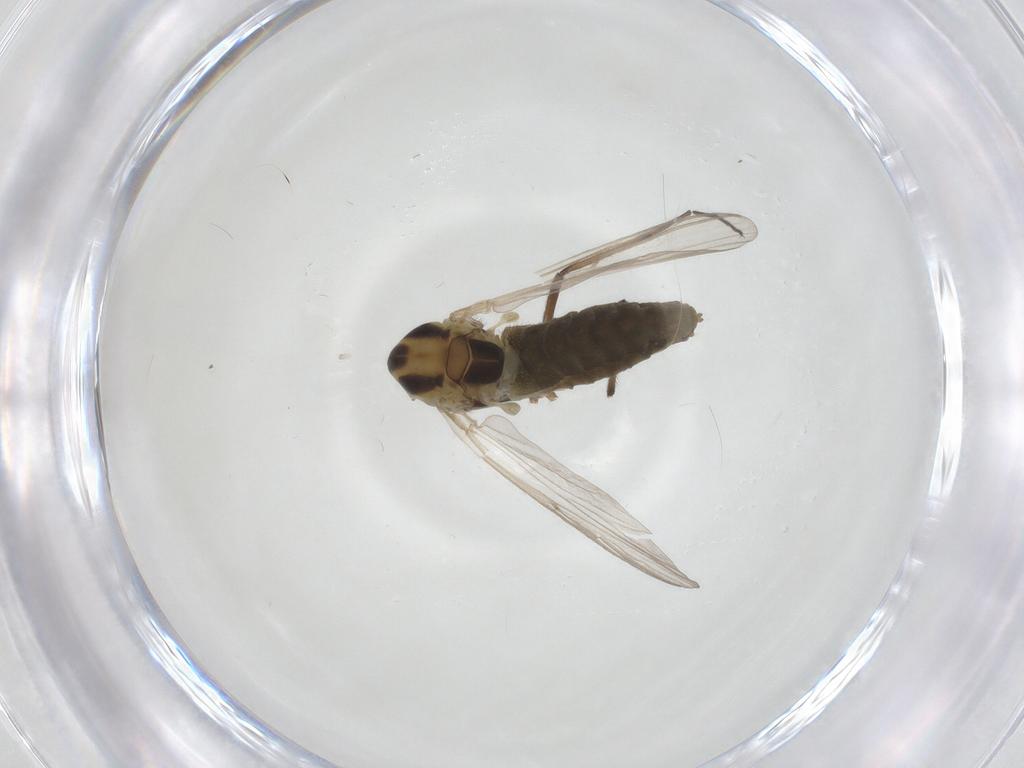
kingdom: Animalia
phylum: Arthropoda
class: Insecta
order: Diptera
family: Chironomidae
